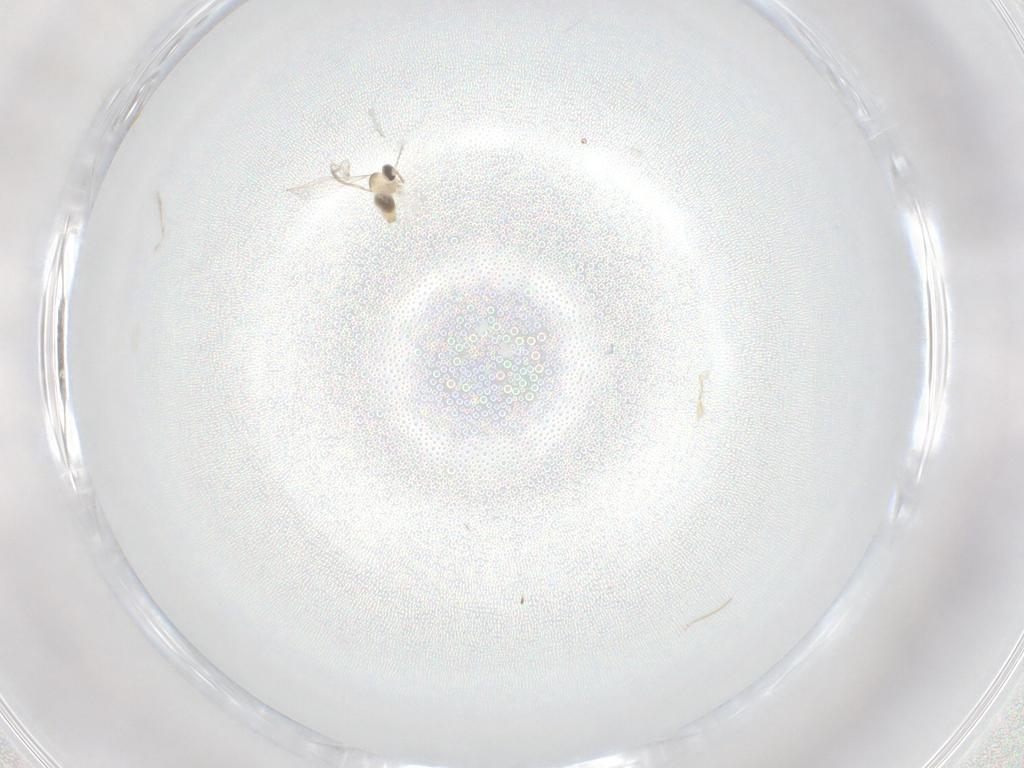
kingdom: Animalia
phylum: Arthropoda
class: Insecta
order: Diptera
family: Cecidomyiidae
